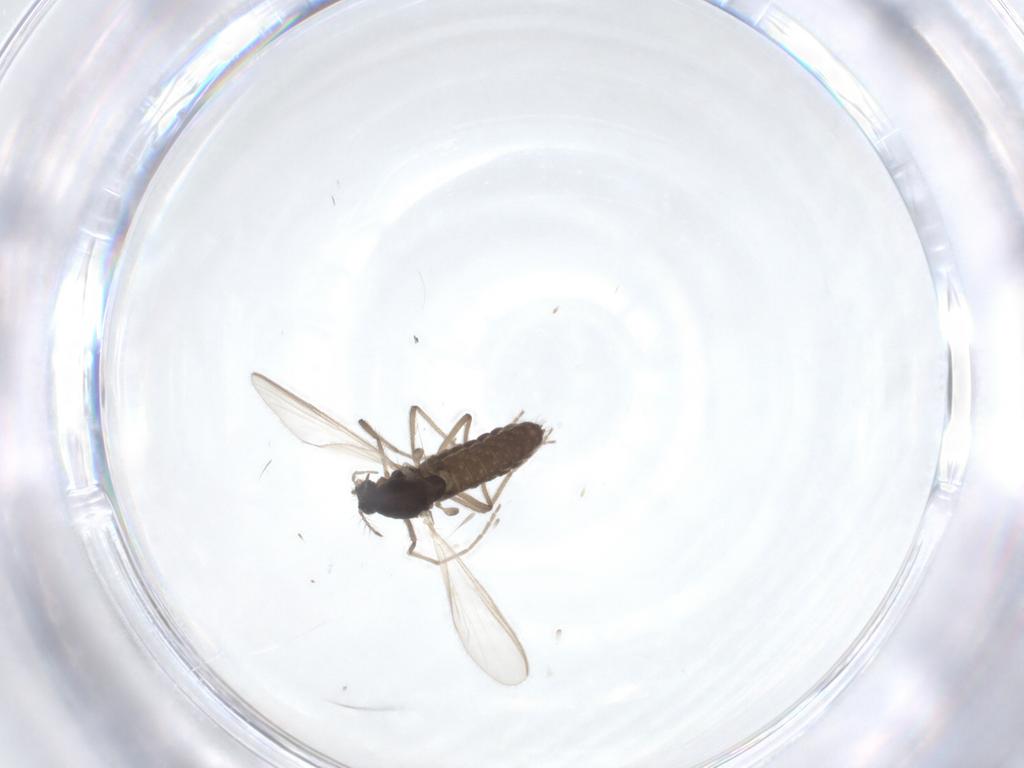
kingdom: Animalia
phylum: Arthropoda
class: Insecta
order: Diptera
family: Chironomidae
